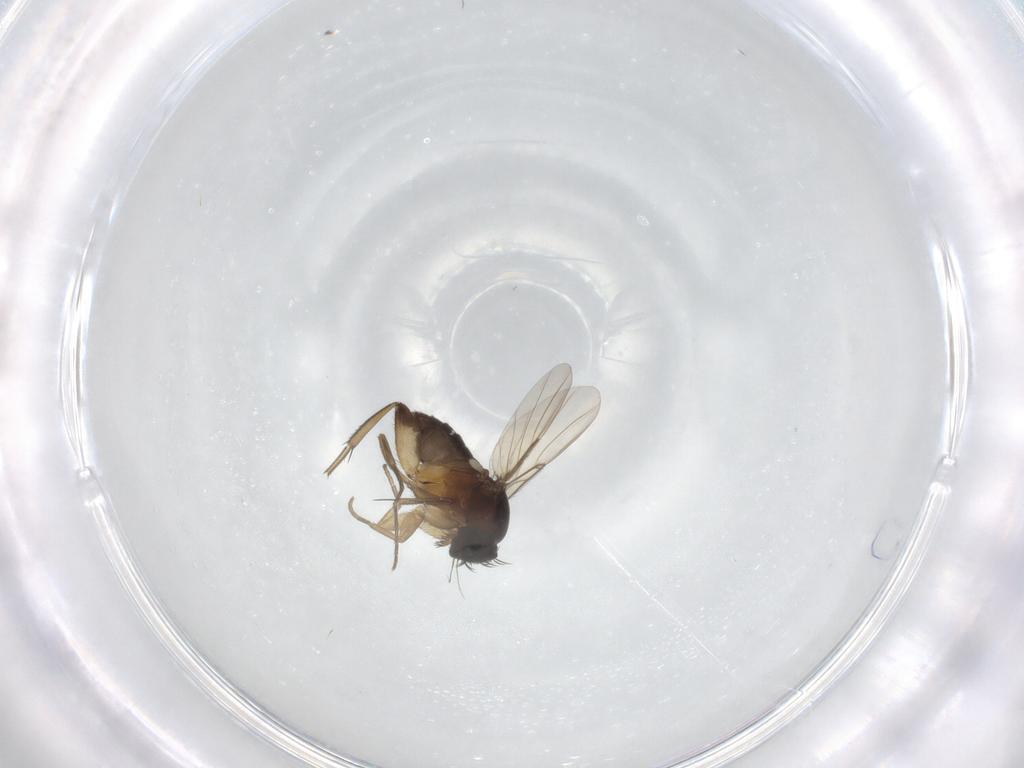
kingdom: Animalia
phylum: Arthropoda
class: Insecta
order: Diptera
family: Phoridae
